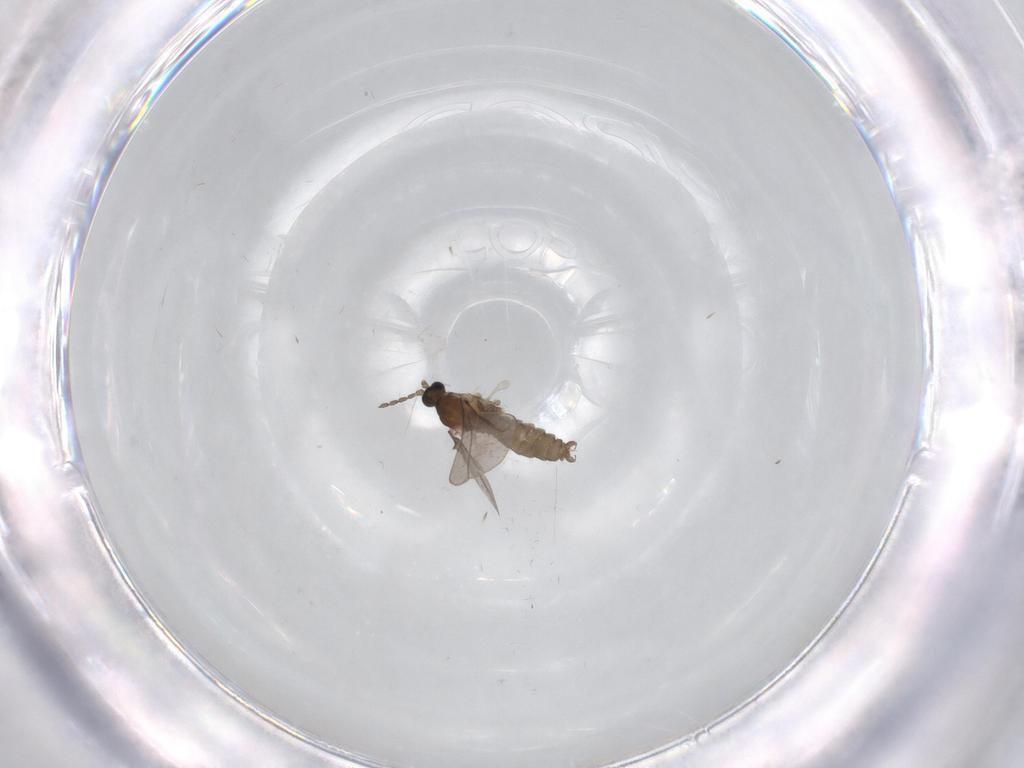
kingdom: Animalia
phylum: Arthropoda
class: Insecta
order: Diptera
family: Cecidomyiidae
